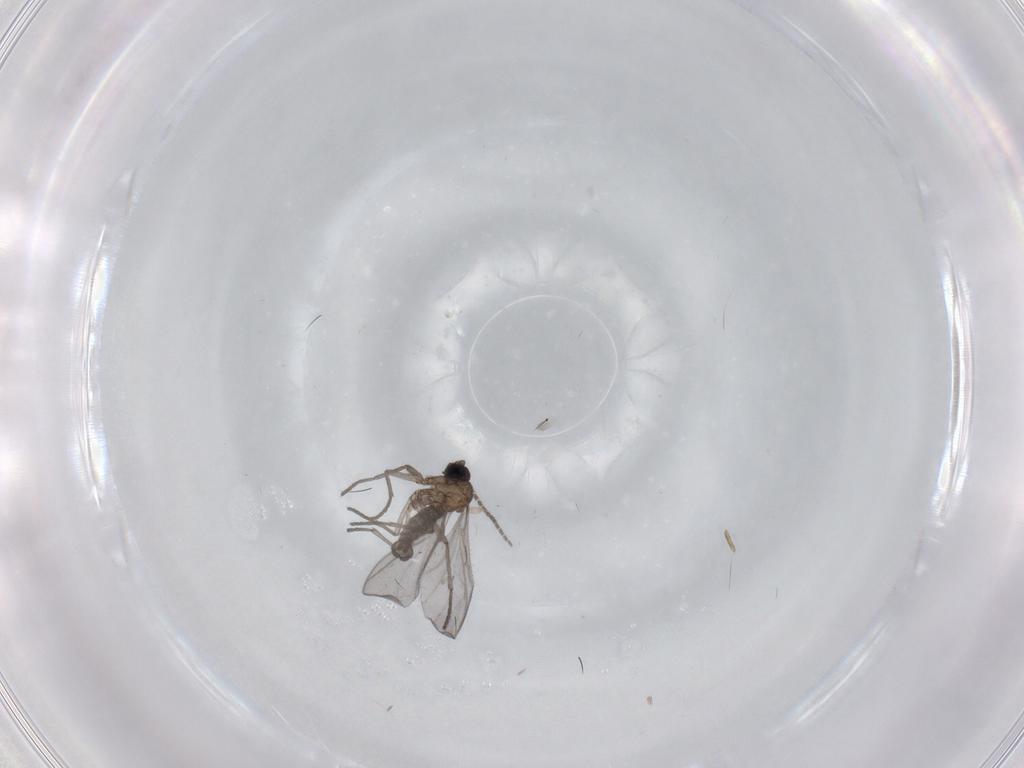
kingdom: Animalia
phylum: Arthropoda
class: Insecta
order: Diptera
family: Sciaridae
